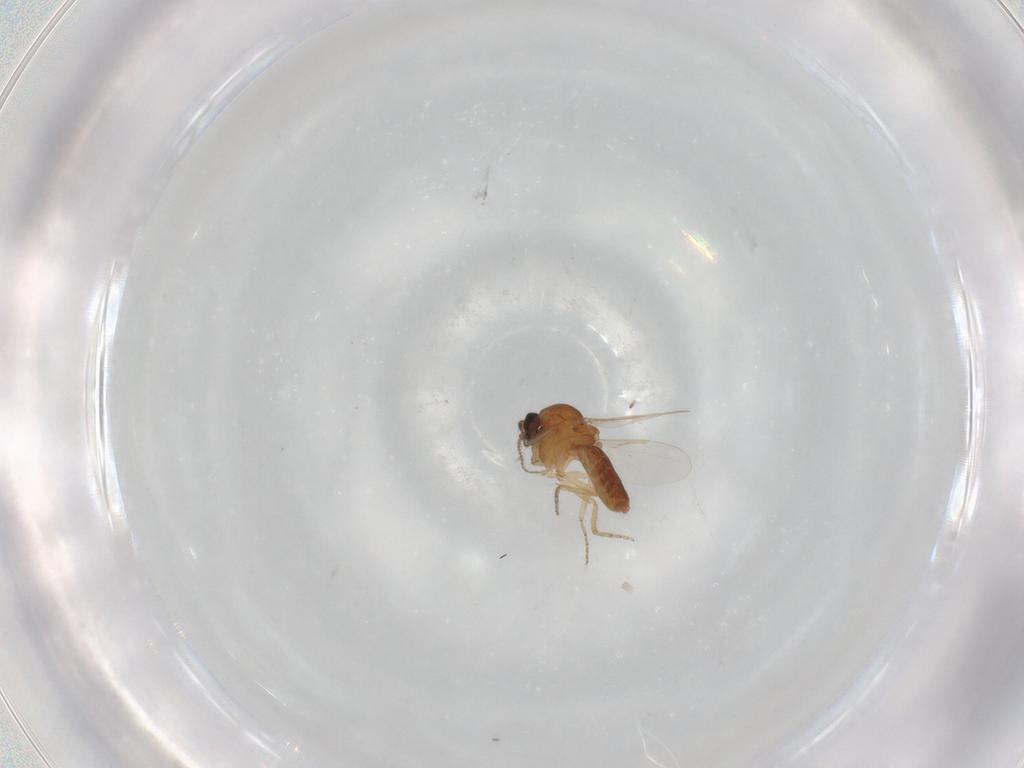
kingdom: Animalia
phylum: Arthropoda
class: Insecta
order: Diptera
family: Ceratopogonidae
